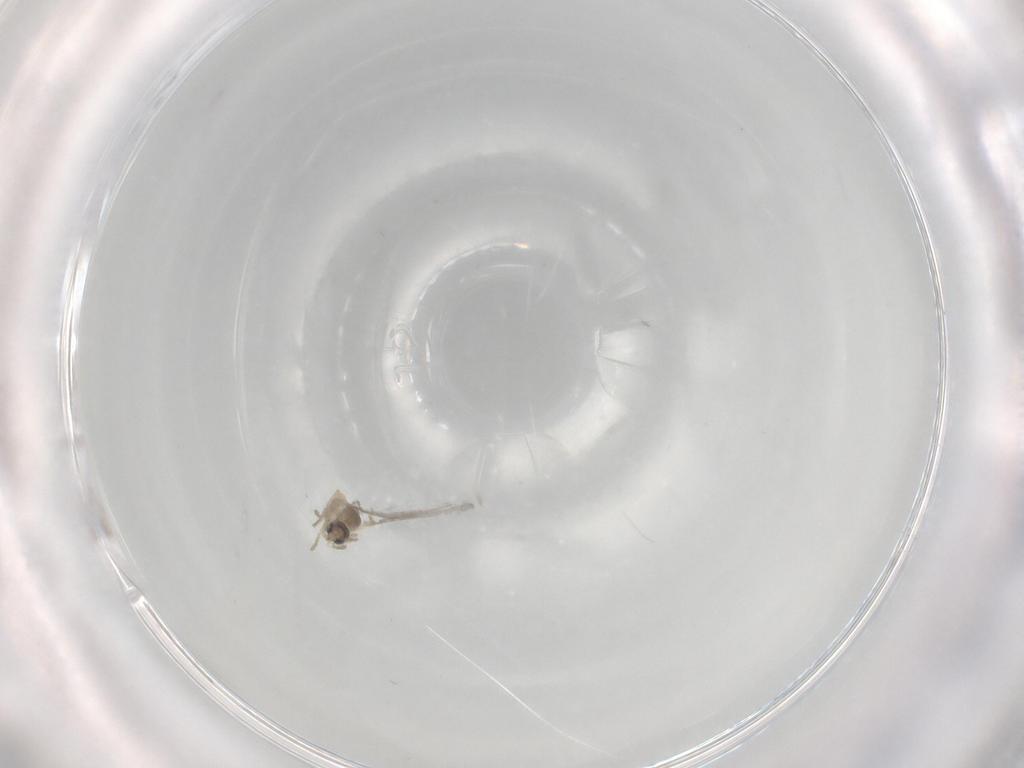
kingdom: Animalia
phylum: Arthropoda
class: Insecta
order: Diptera
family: Cecidomyiidae
